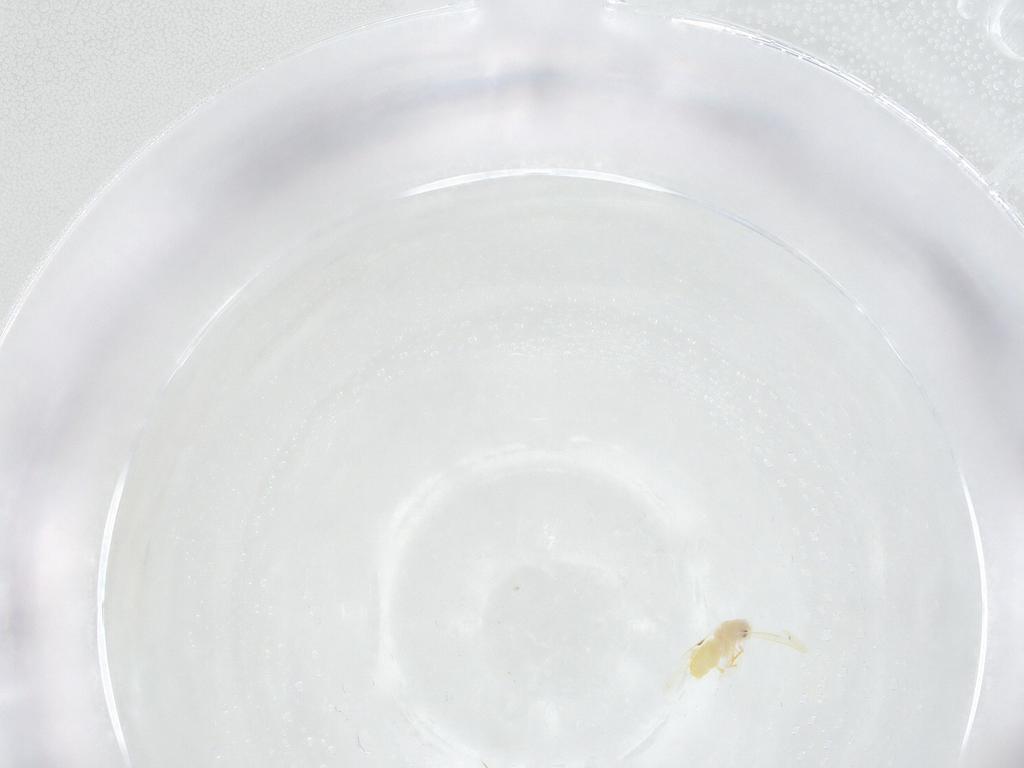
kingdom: Animalia
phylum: Arthropoda
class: Insecta
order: Hemiptera
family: Aleyrodidae
